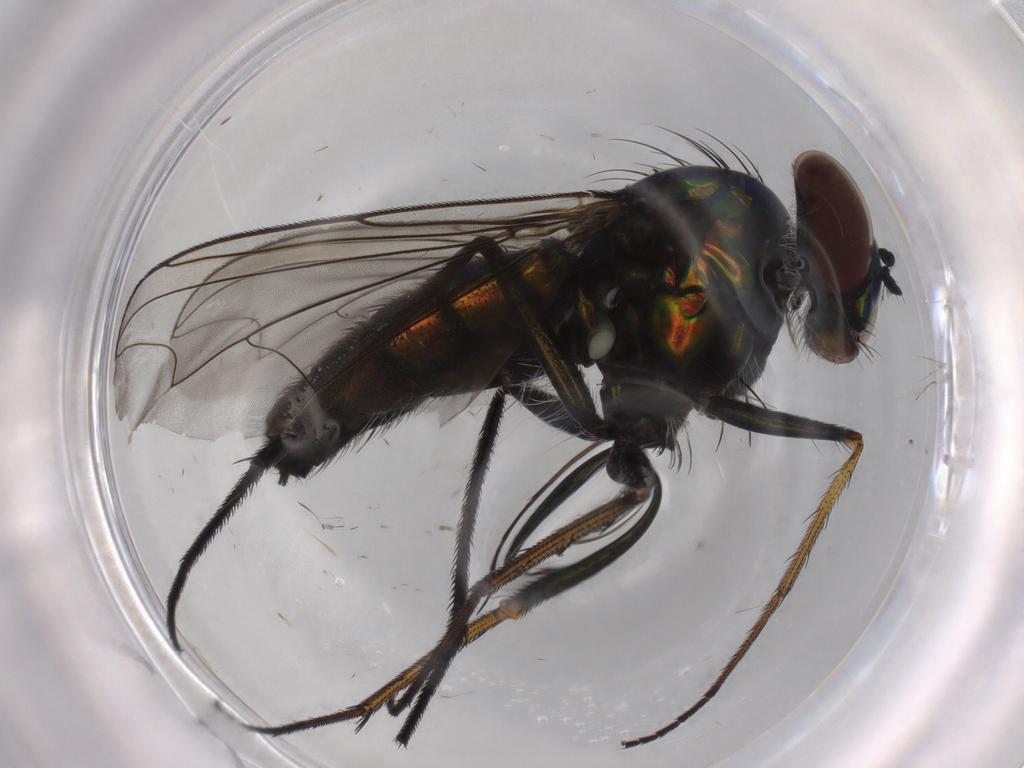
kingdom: Animalia
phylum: Arthropoda
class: Insecta
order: Diptera
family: Dolichopodidae
